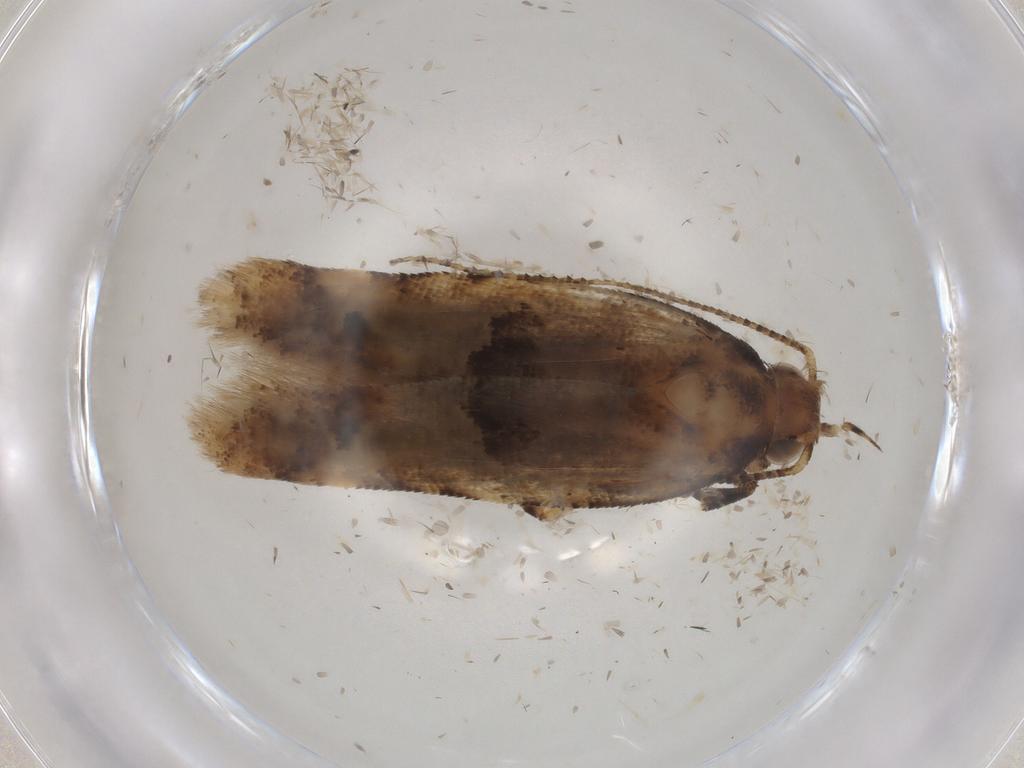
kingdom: Animalia
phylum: Arthropoda
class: Insecta
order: Lepidoptera
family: Gelechiidae
